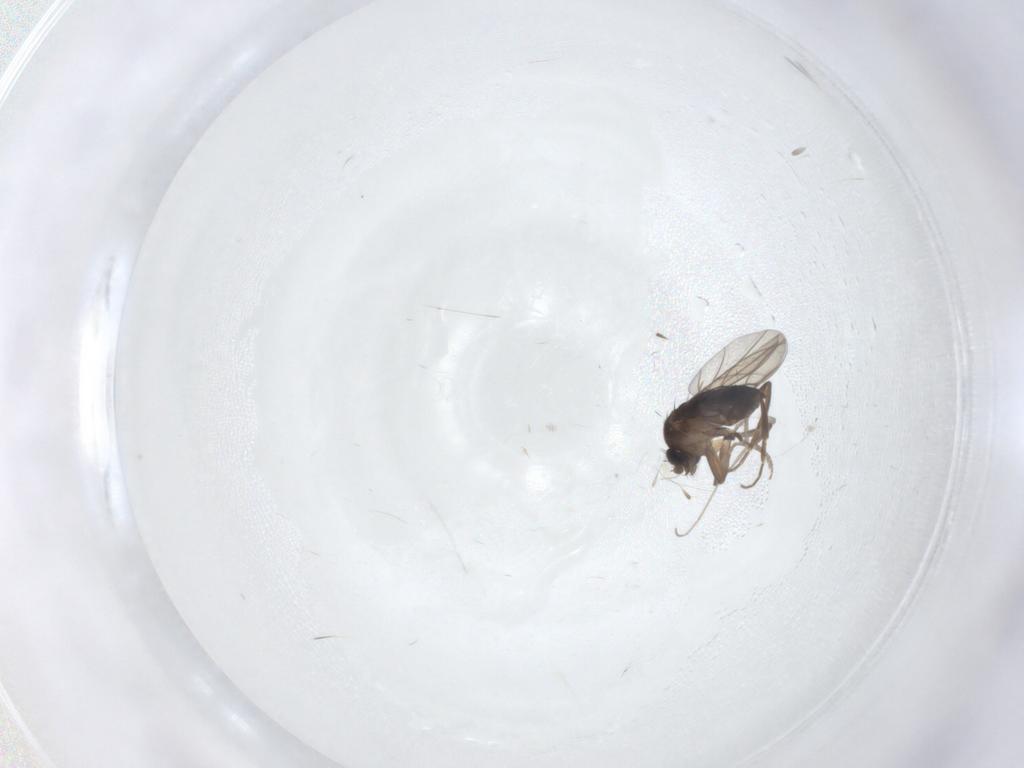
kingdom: Animalia
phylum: Arthropoda
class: Insecta
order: Diptera
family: Chironomidae
